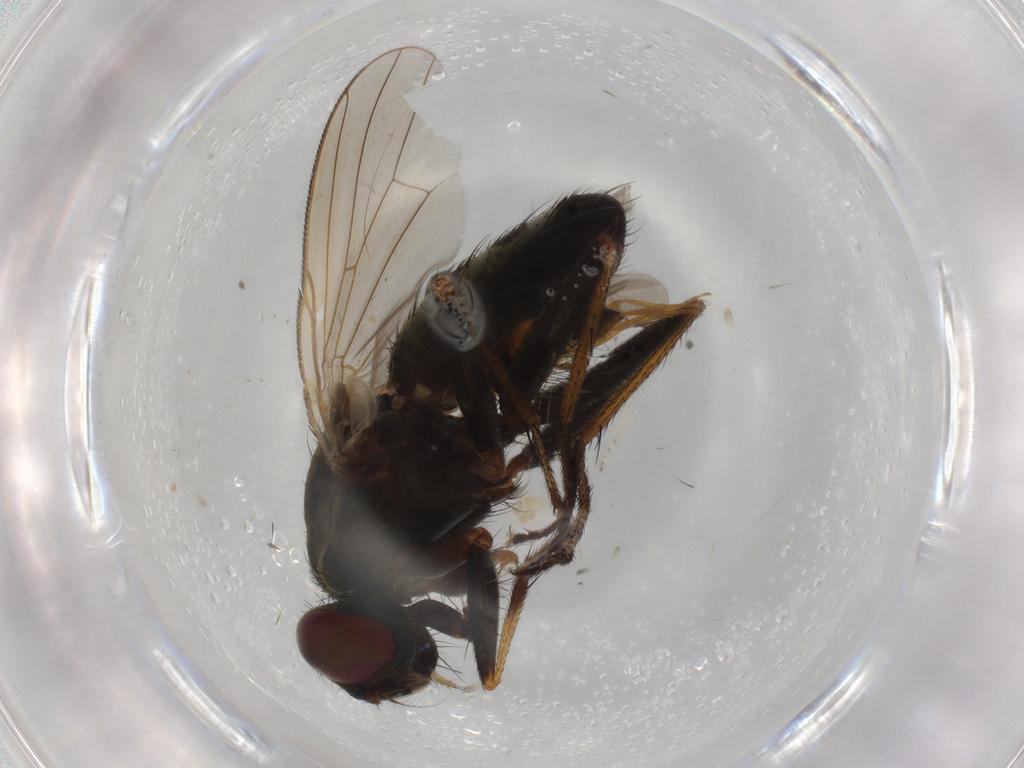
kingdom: Animalia
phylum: Arthropoda
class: Insecta
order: Diptera
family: Muscidae
